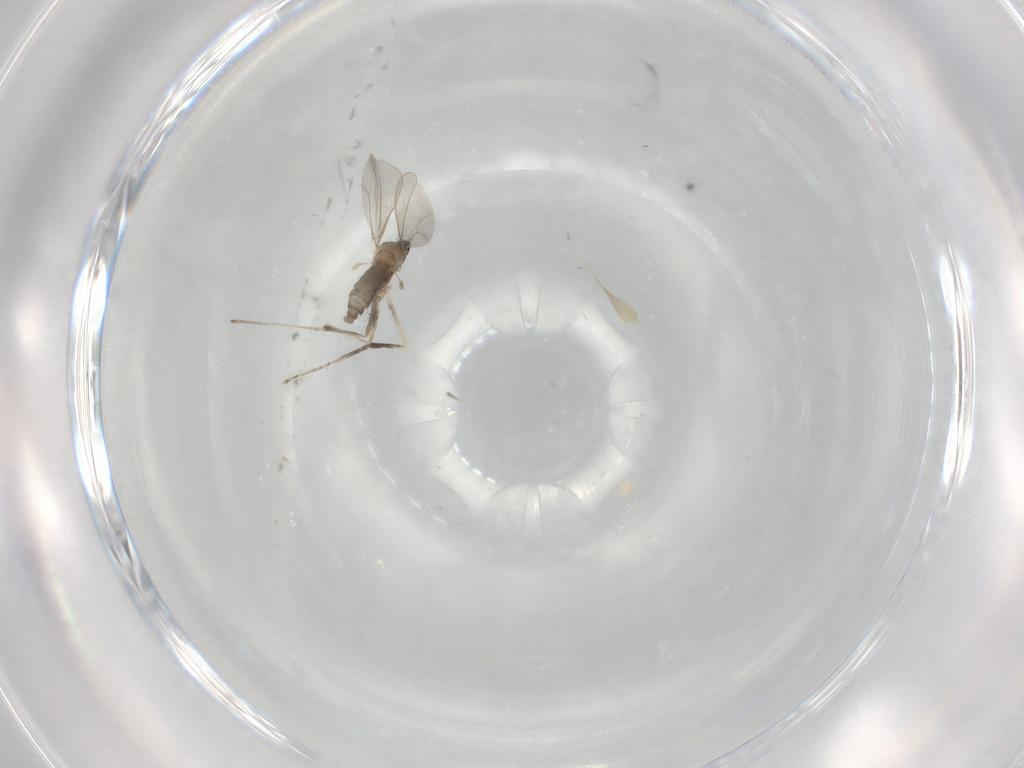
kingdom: Animalia
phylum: Arthropoda
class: Insecta
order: Diptera
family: Cecidomyiidae
